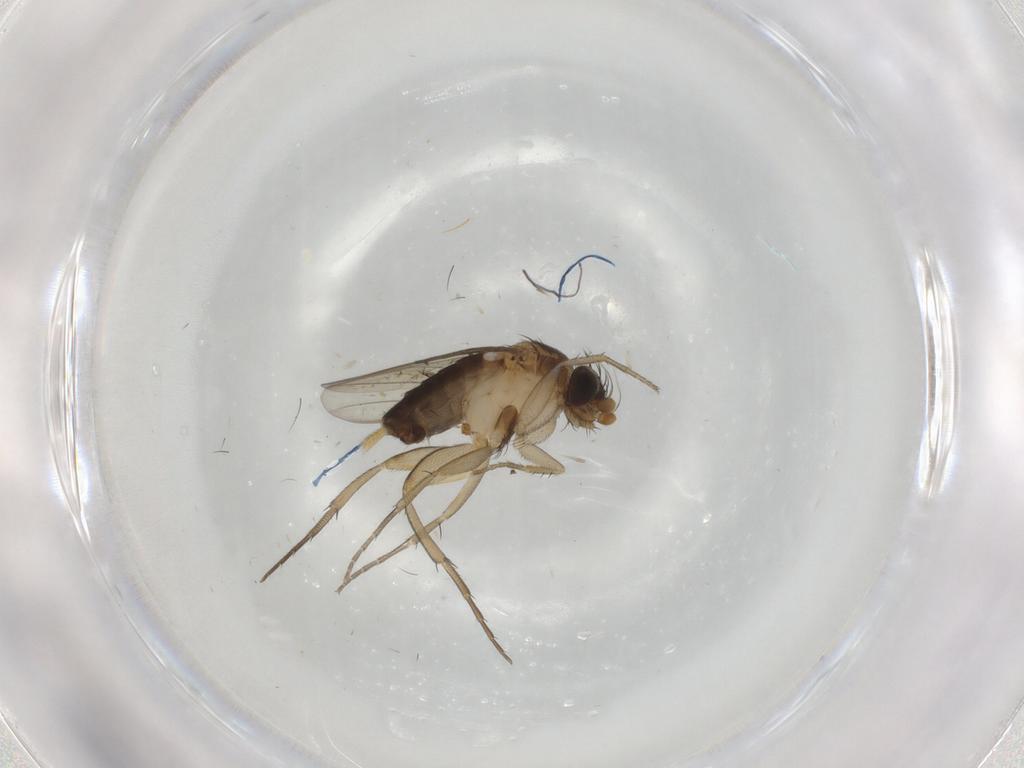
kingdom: Animalia
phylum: Arthropoda
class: Insecta
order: Diptera
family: Phoridae
